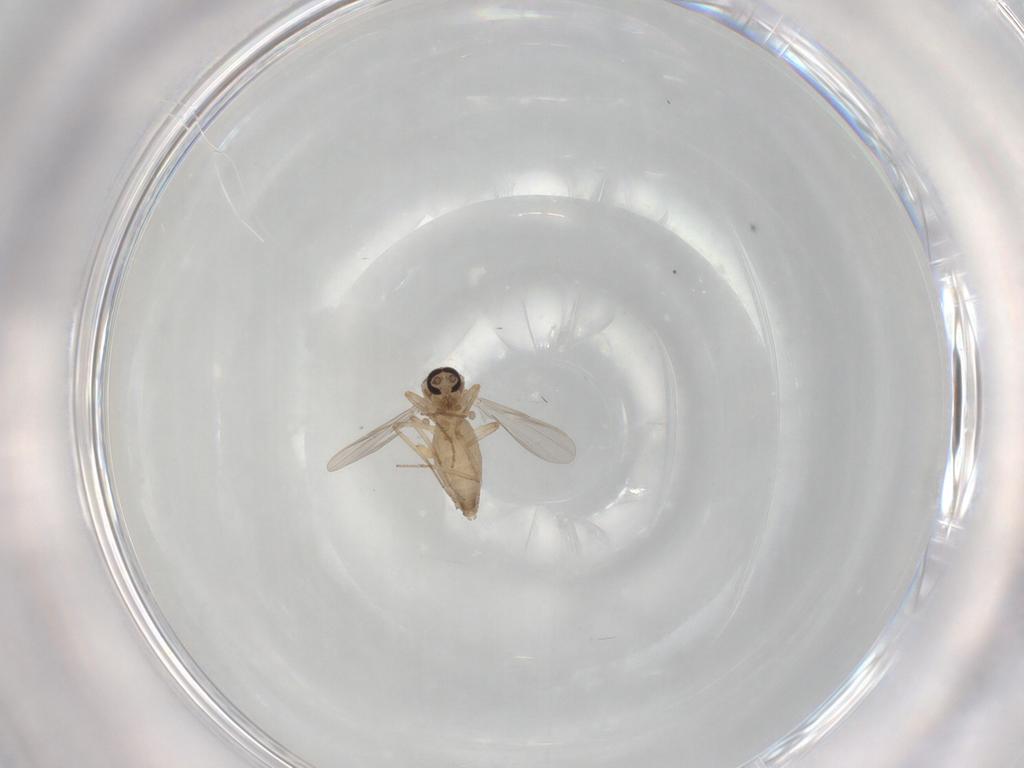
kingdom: Animalia
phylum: Arthropoda
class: Insecta
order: Diptera
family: Ceratopogonidae
